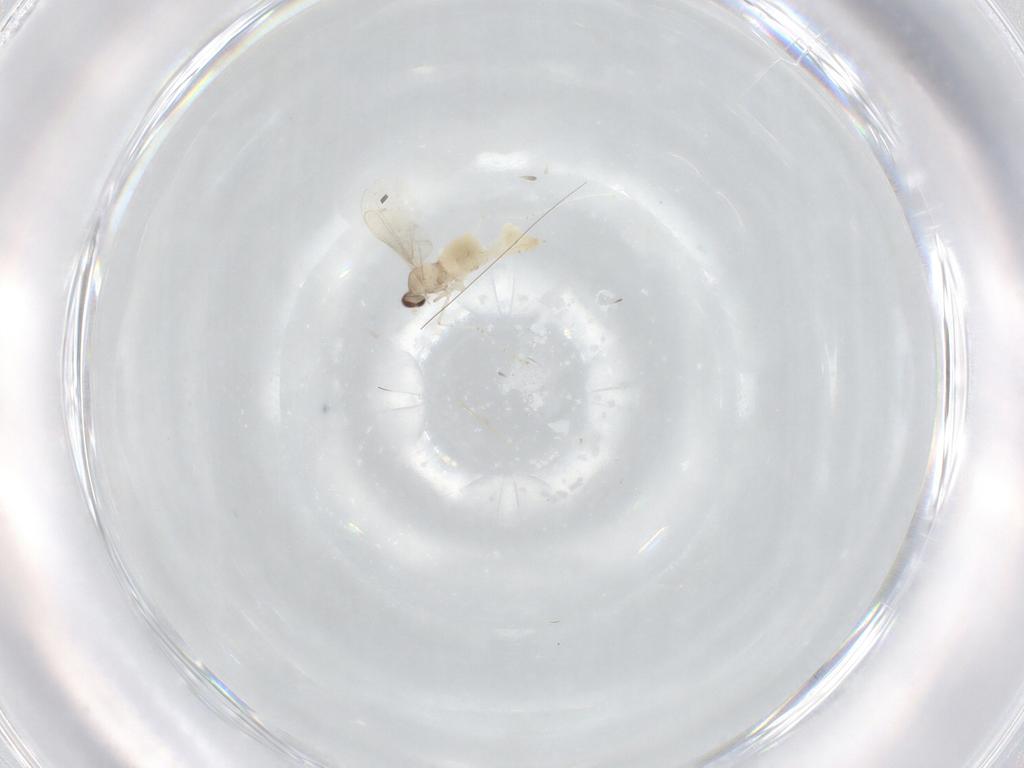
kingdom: Animalia
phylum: Arthropoda
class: Insecta
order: Diptera
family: Cecidomyiidae
